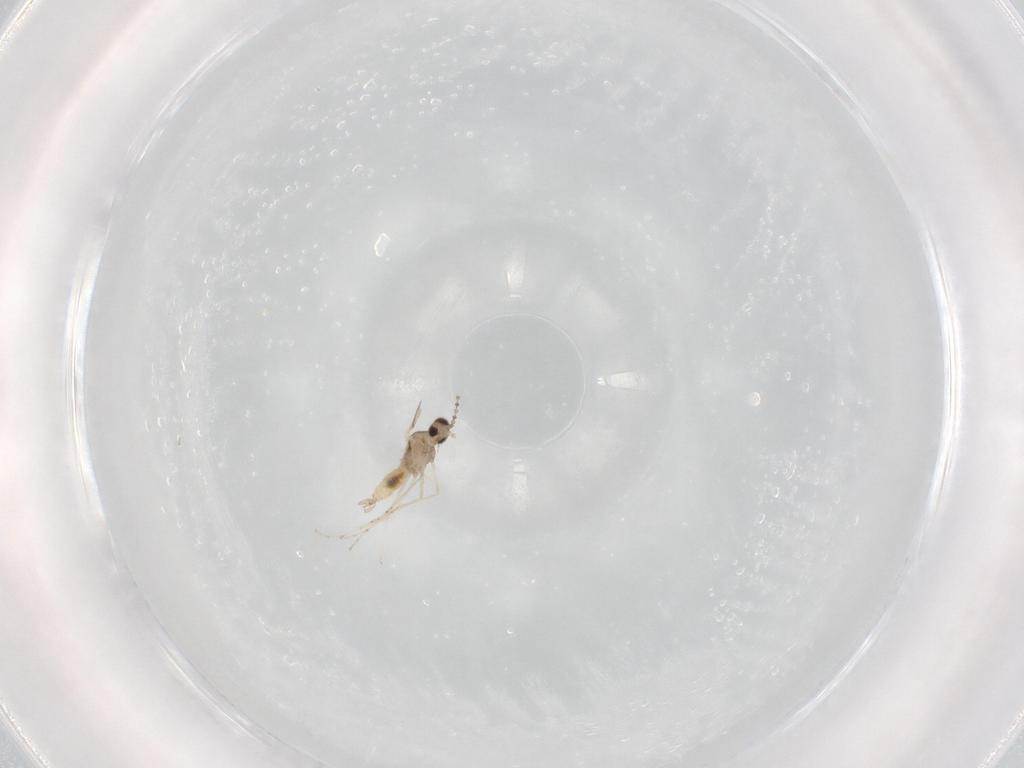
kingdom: Animalia
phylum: Arthropoda
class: Insecta
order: Diptera
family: Cecidomyiidae
